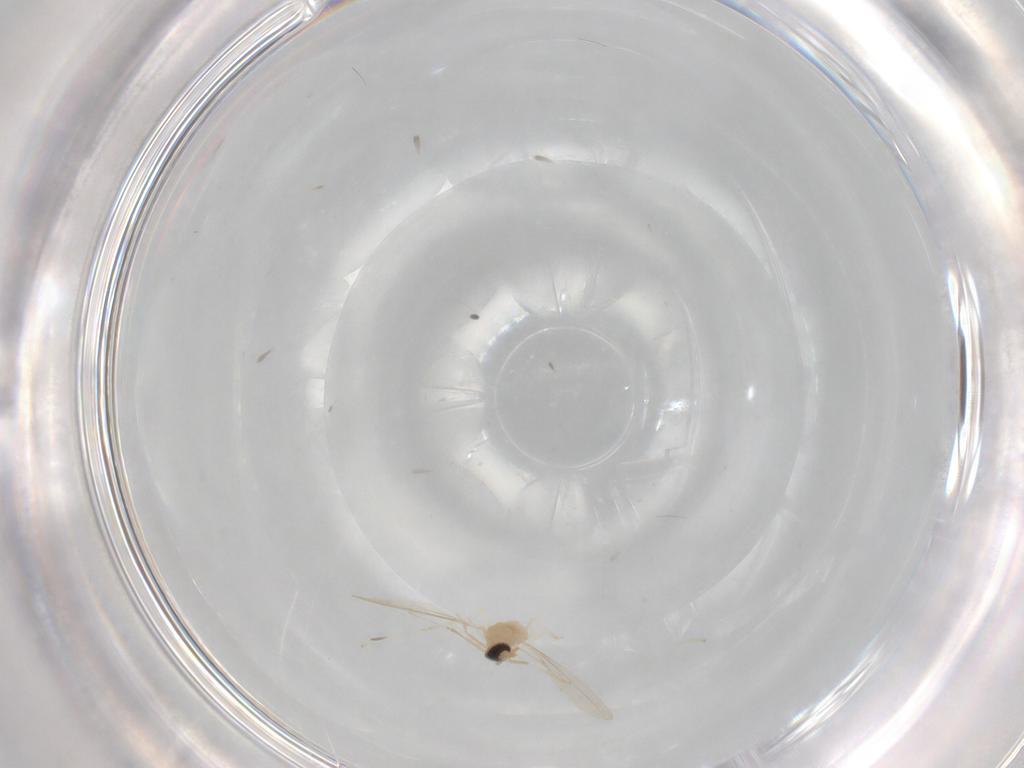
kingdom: Animalia
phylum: Arthropoda
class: Insecta
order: Diptera
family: Cecidomyiidae
